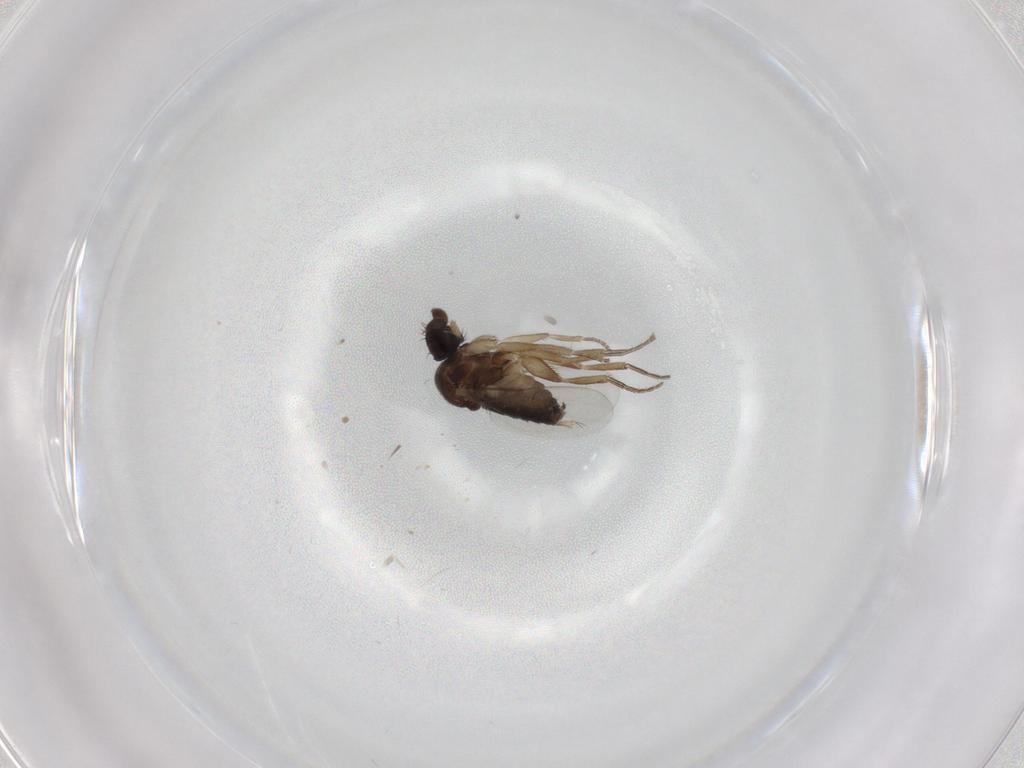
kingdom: Animalia
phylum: Arthropoda
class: Insecta
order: Diptera
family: Phoridae
